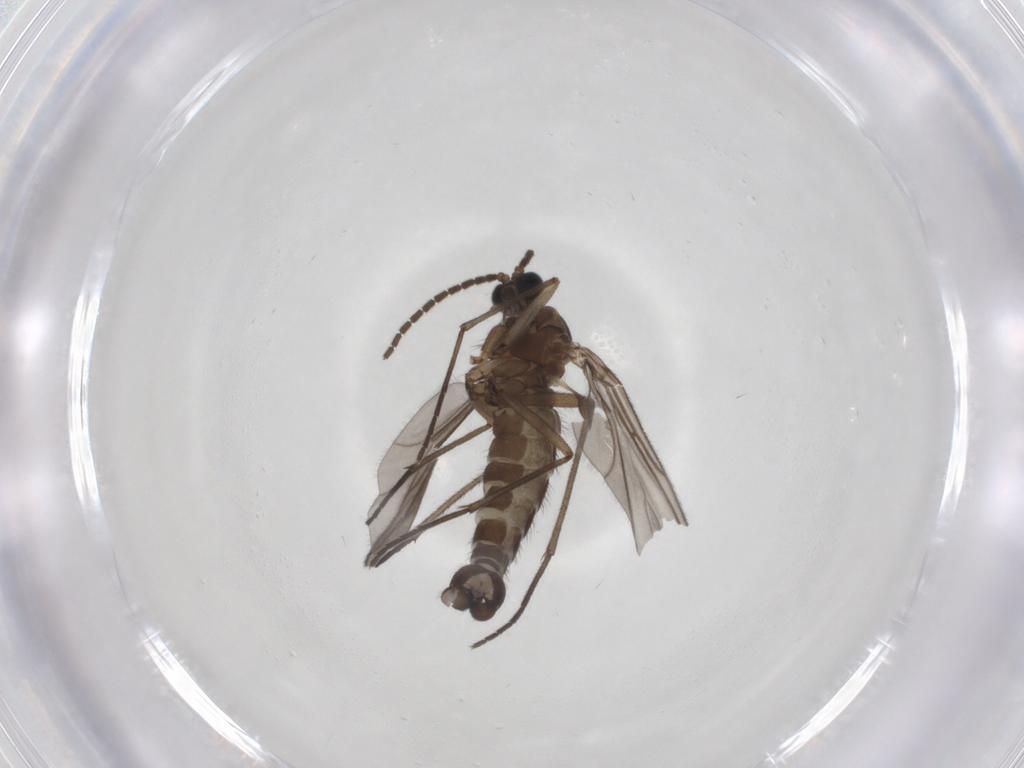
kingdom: Animalia
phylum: Arthropoda
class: Insecta
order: Diptera
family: Sciaridae
